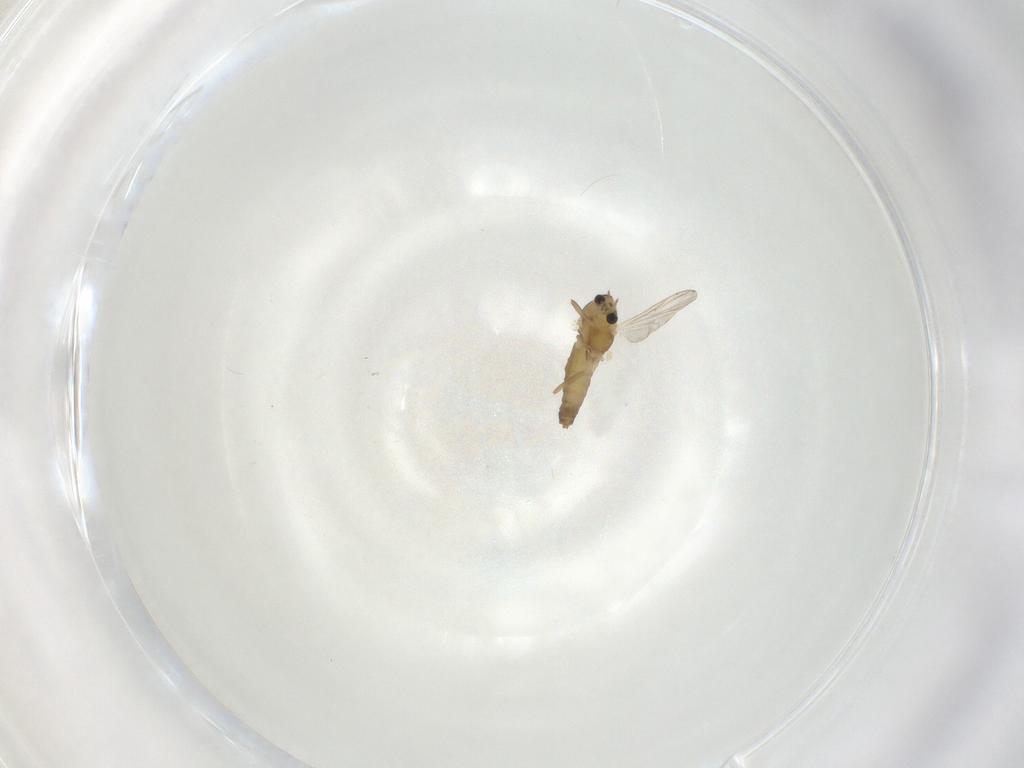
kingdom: Animalia
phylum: Arthropoda
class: Insecta
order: Diptera
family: Chironomidae
